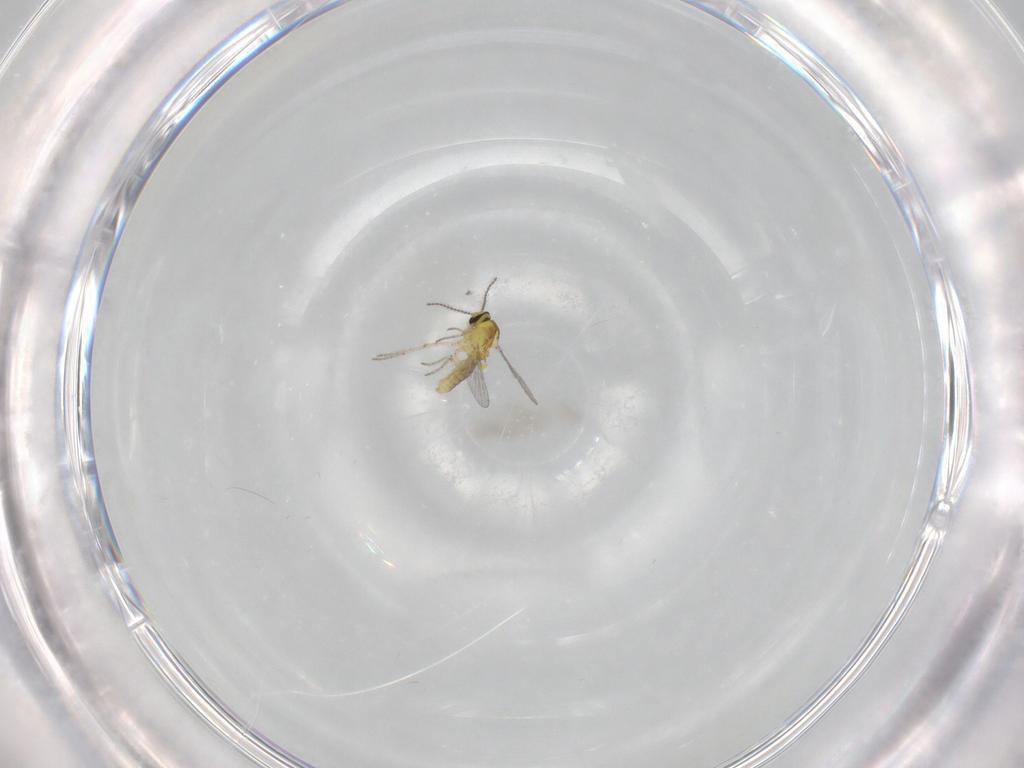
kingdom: Animalia
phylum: Arthropoda
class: Insecta
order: Diptera
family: Ceratopogonidae
